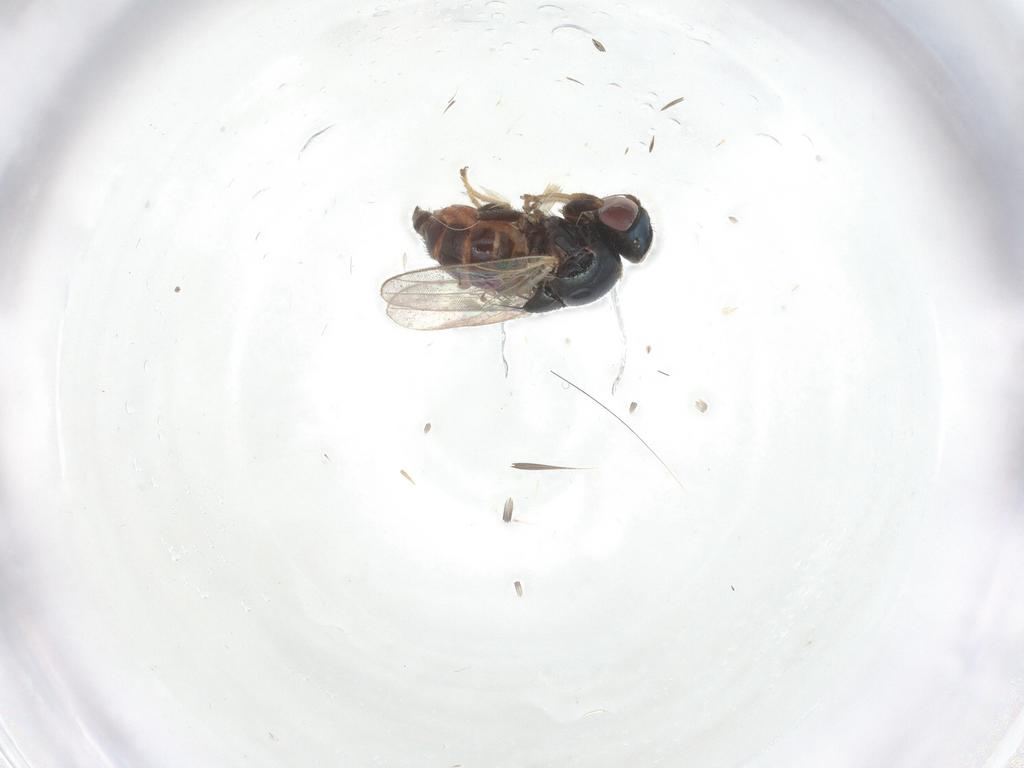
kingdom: Animalia
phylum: Arthropoda
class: Insecta
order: Diptera
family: Chloropidae
